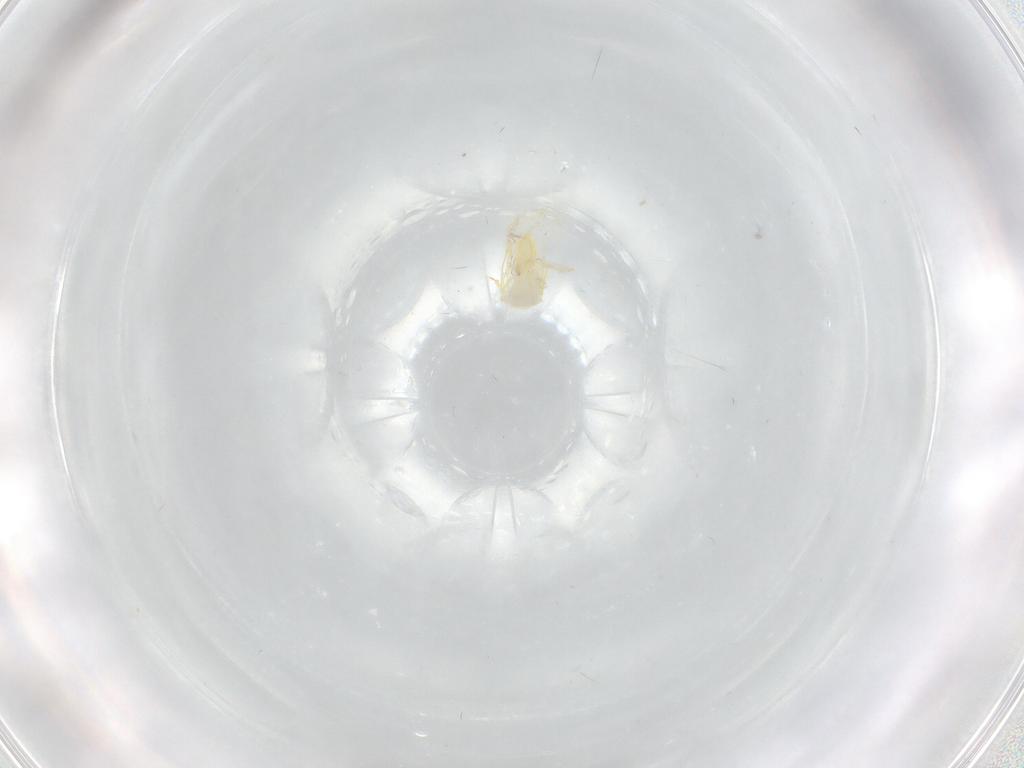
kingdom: Animalia
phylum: Arthropoda
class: Insecta
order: Hemiptera
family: Aleyrodidae
